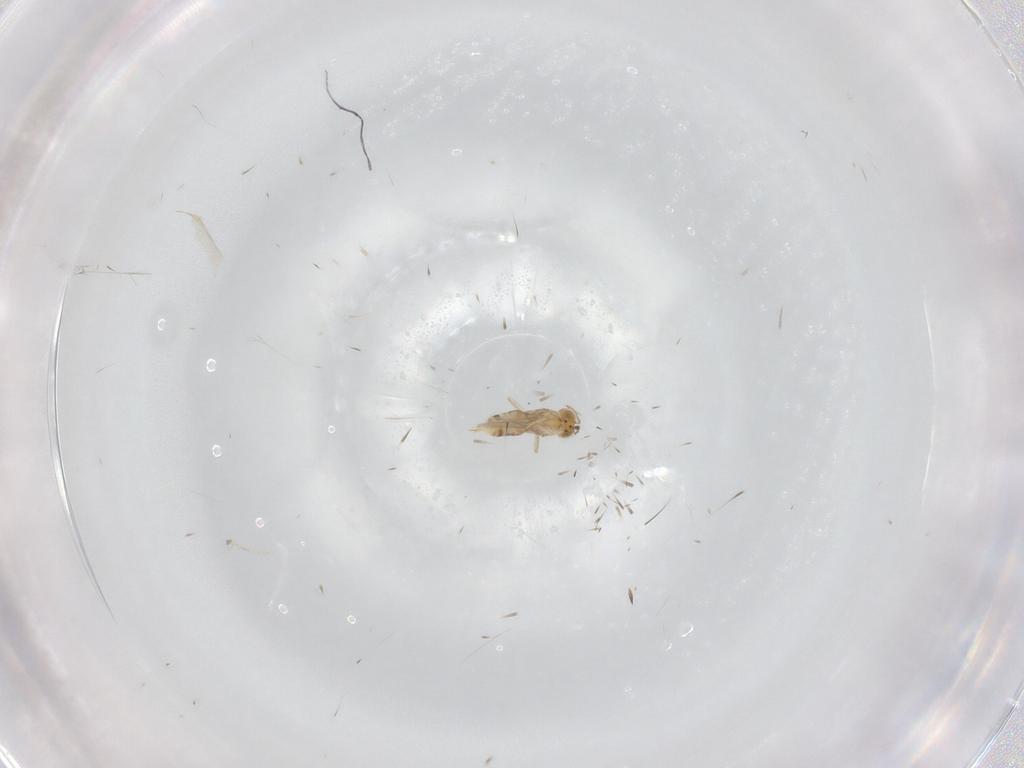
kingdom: Animalia
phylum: Arthropoda
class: Insecta
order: Hymenoptera
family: Aphelinidae
